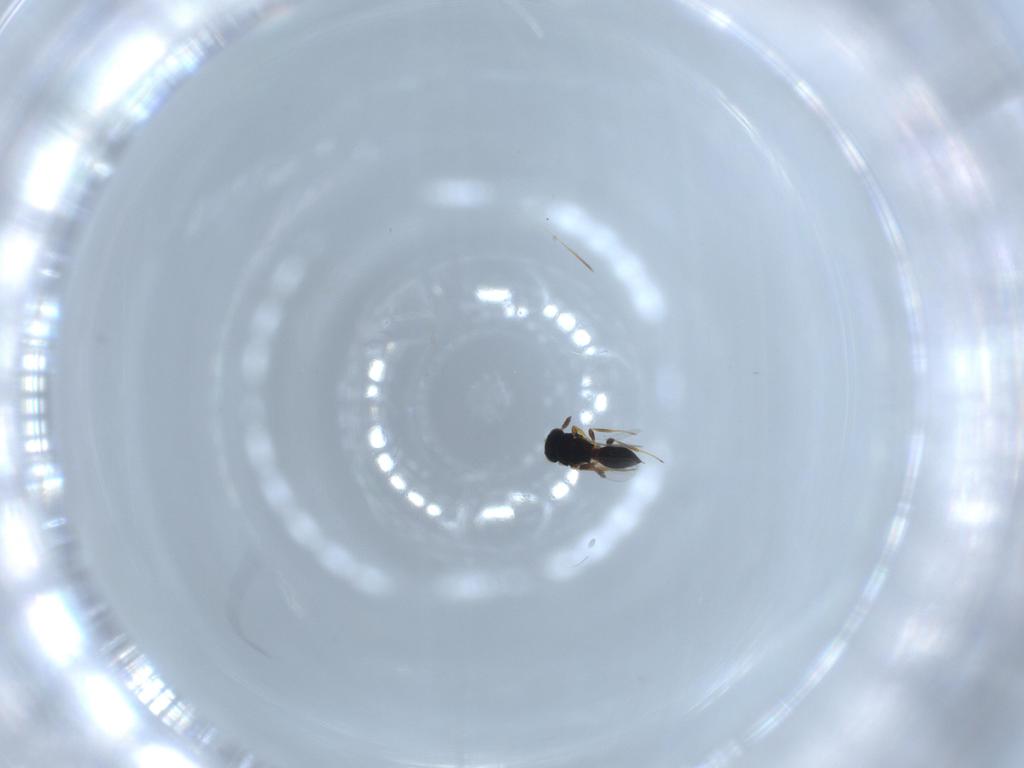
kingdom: Animalia
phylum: Arthropoda
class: Insecta
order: Hymenoptera
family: Platygastridae
